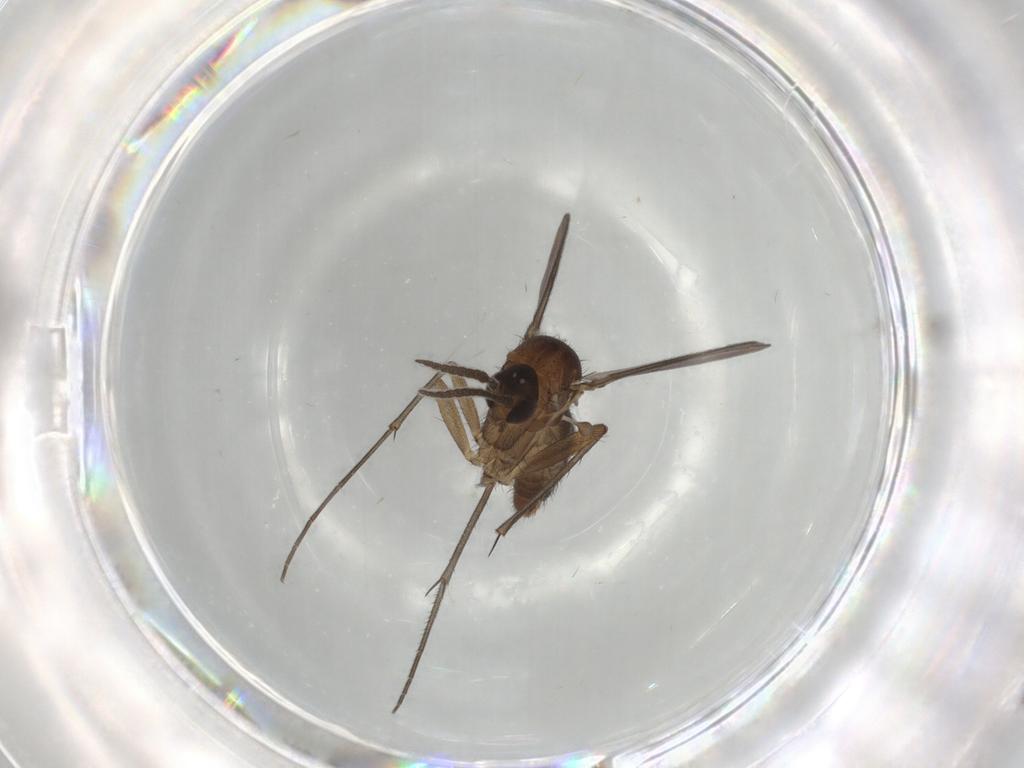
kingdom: Animalia
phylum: Arthropoda
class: Insecta
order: Diptera
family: Mycetophilidae
